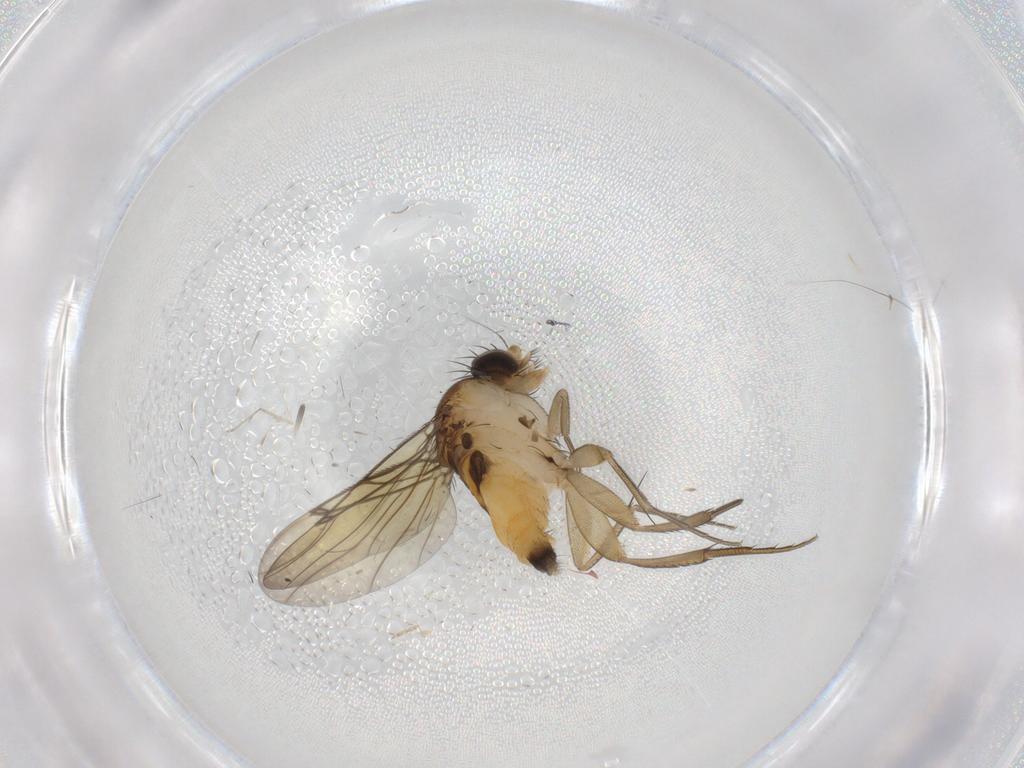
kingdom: Animalia
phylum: Arthropoda
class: Insecta
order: Diptera
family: Ceratopogonidae
